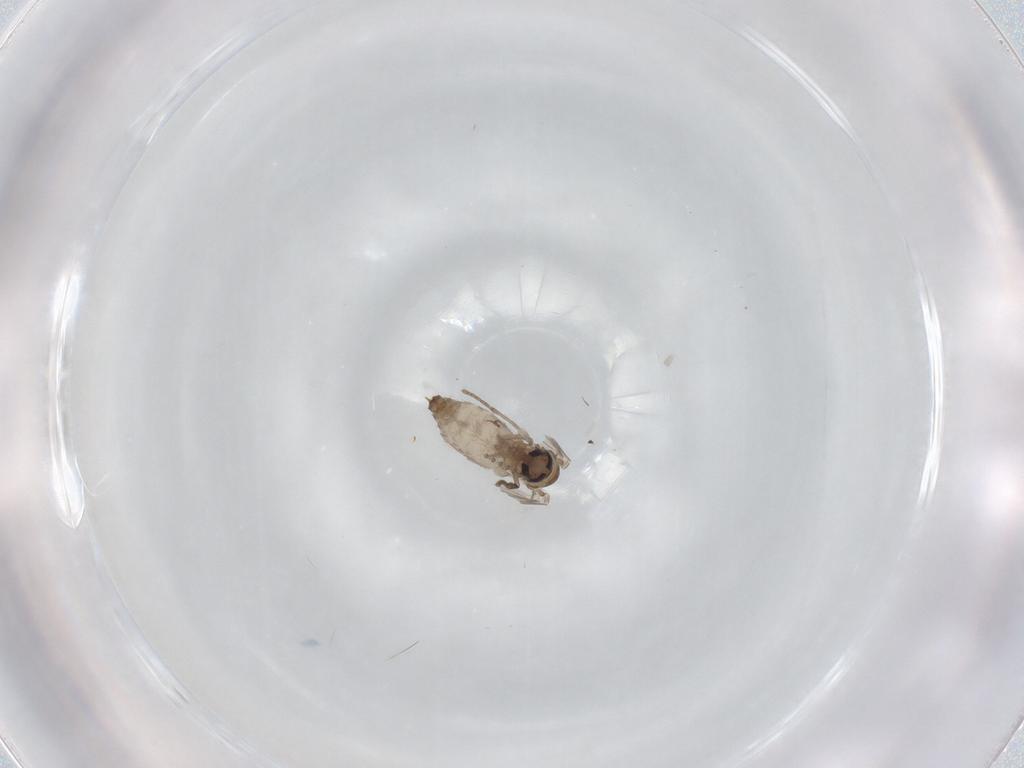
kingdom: Animalia
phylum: Arthropoda
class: Insecta
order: Diptera
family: Psychodidae
